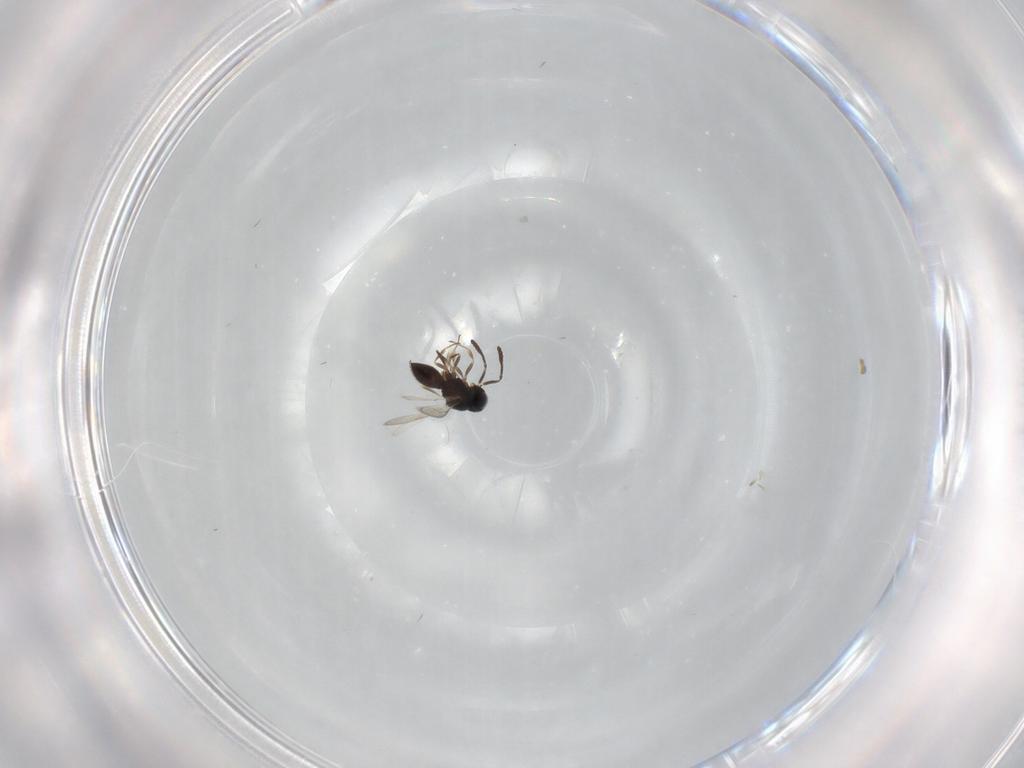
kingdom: Animalia
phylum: Arthropoda
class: Insecta
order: Hymenoptera
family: Scelionidae
